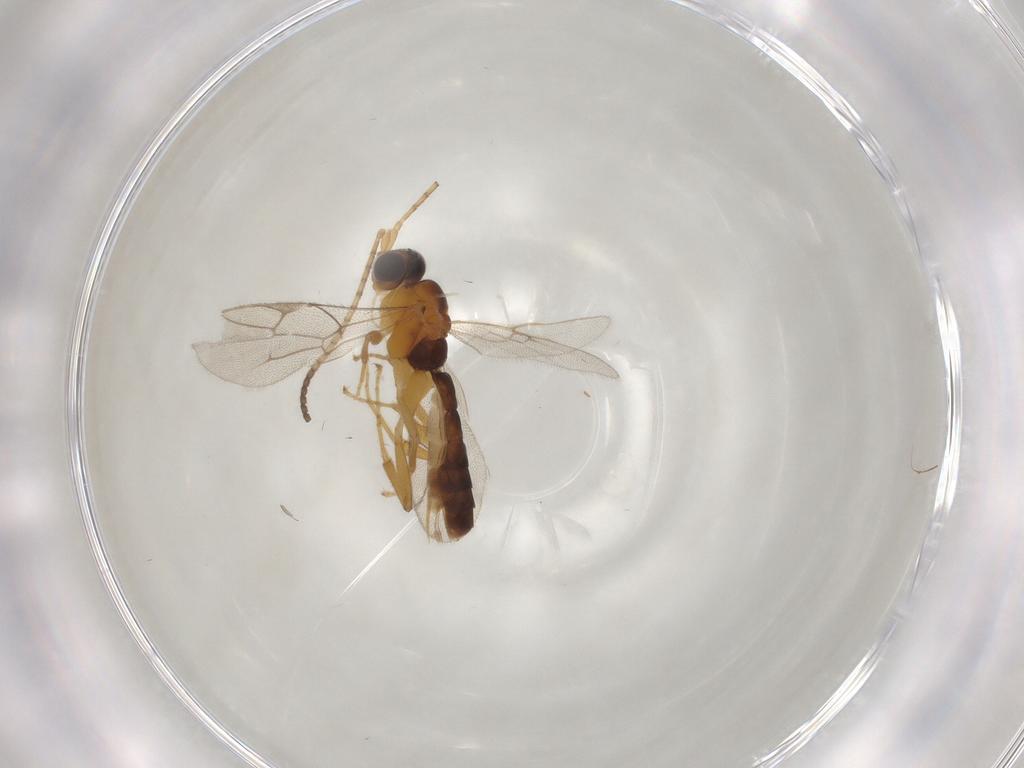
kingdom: Animalia
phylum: Arthropoda
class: Insecta
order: Hymenoptera
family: Ichneumonidae
